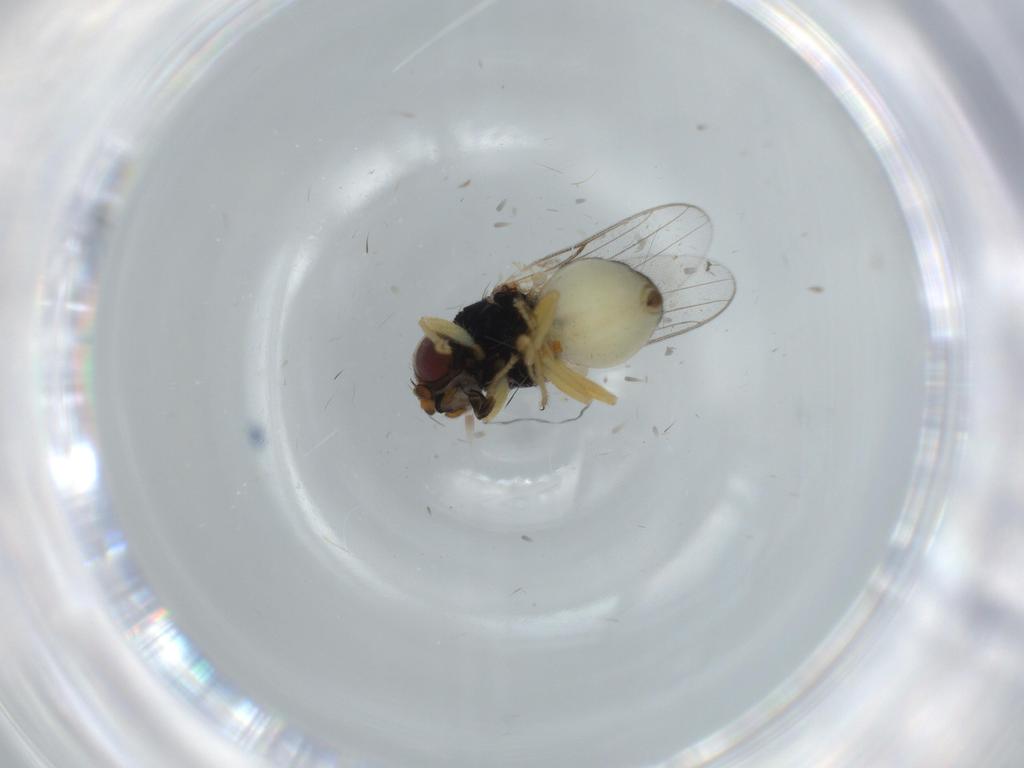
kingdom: Animalia
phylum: Arthropoda
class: Insecta
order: Diptera
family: Chloropidae
